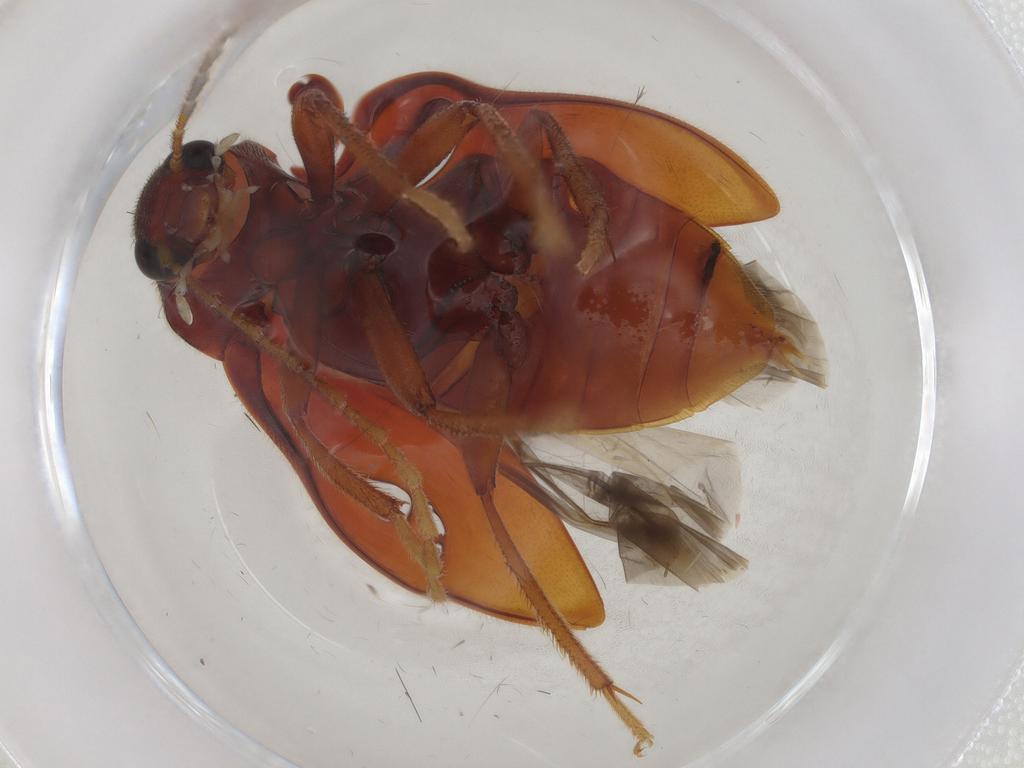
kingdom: Animalia
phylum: Arthropoda
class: Insecta
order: Coleoptera
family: Ptilodactylidae
